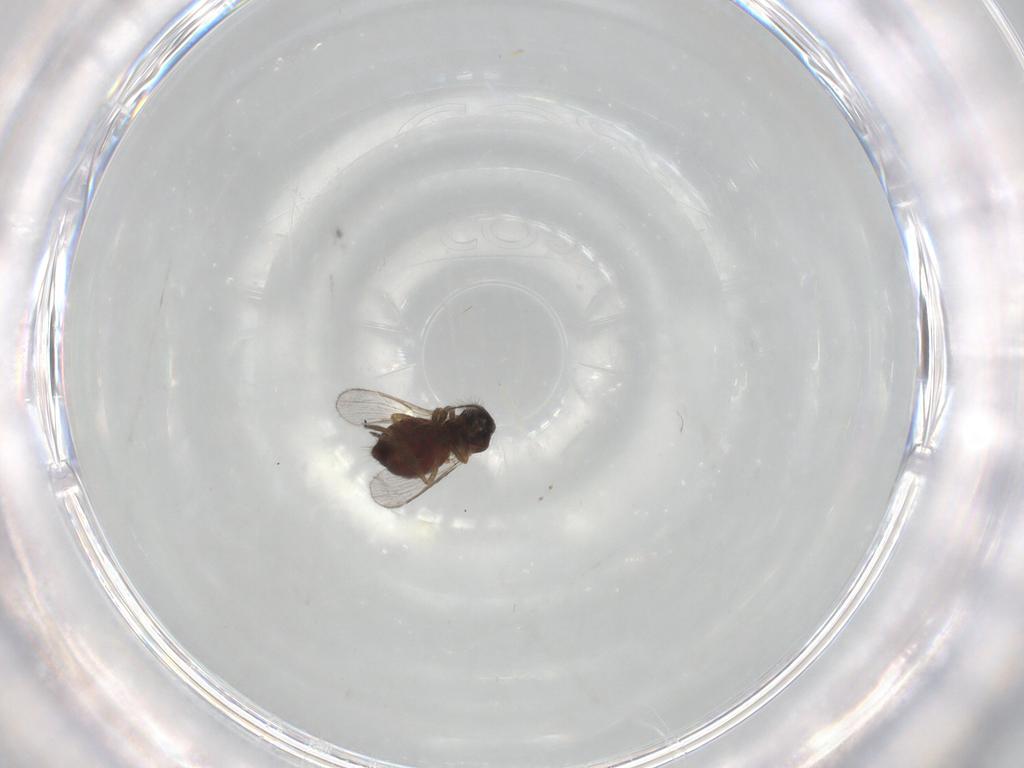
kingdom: Animalia
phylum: Arthropoda
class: Insecta
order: Diptera
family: Cecidomyiidae
